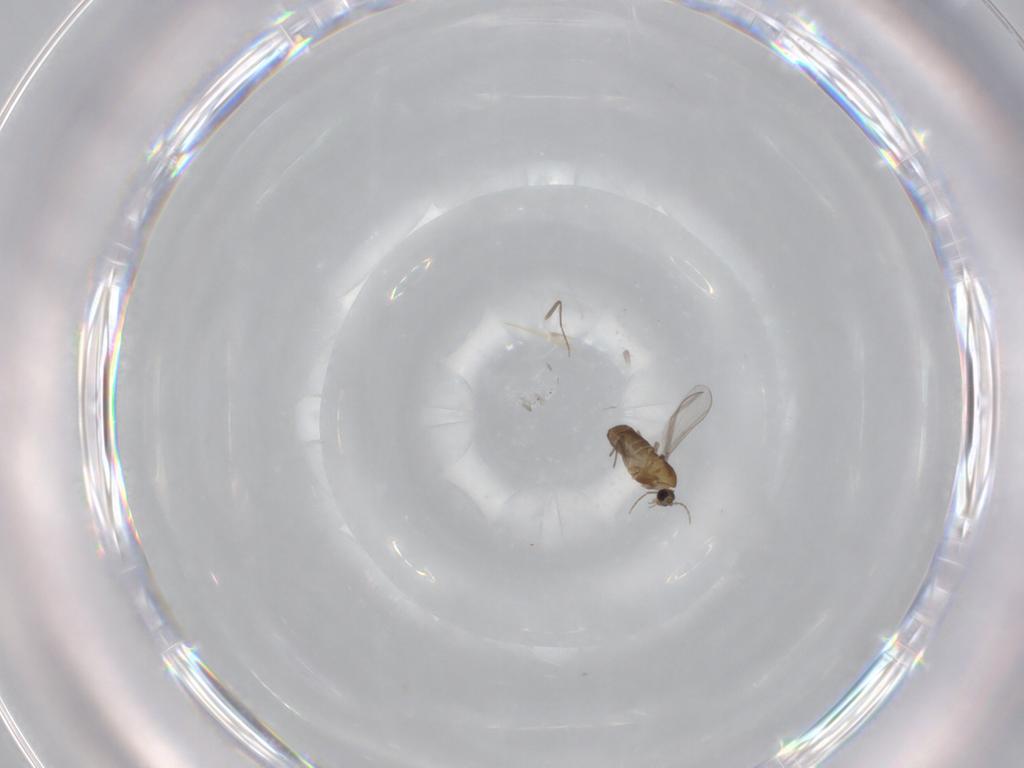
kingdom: Animalia
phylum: Arthropoda
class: Insecta
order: Diptera
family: Chironomidae
